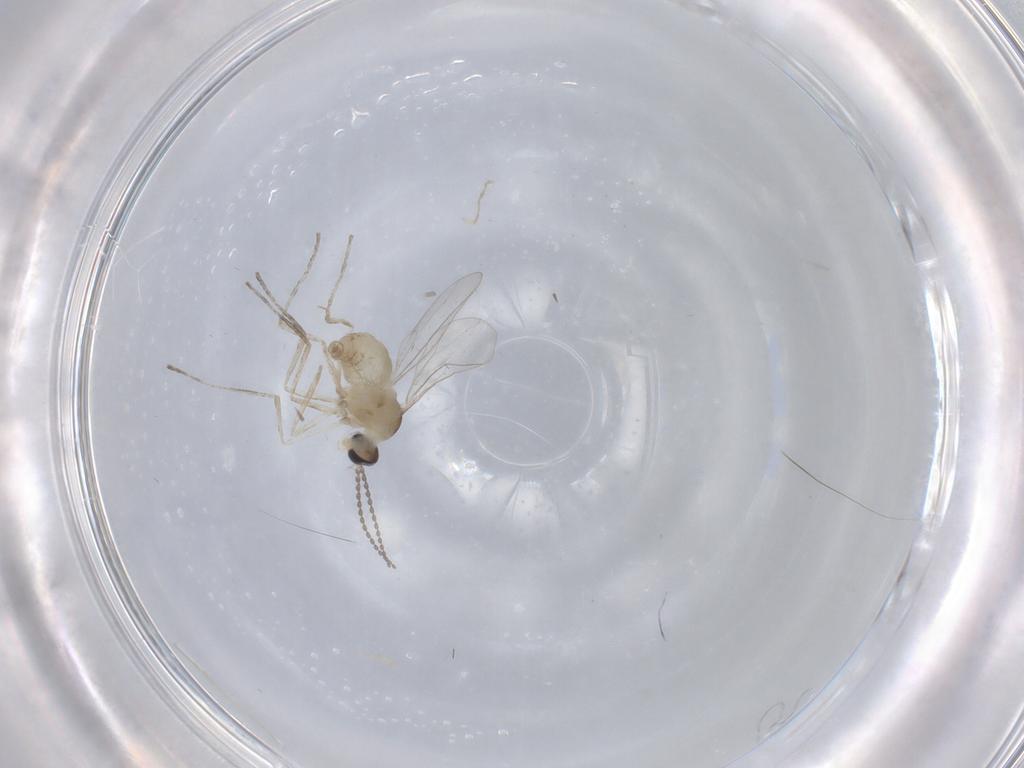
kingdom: Animalia
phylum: Arthropoda
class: Insecta
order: Diptera
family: Cecidomyiidae
